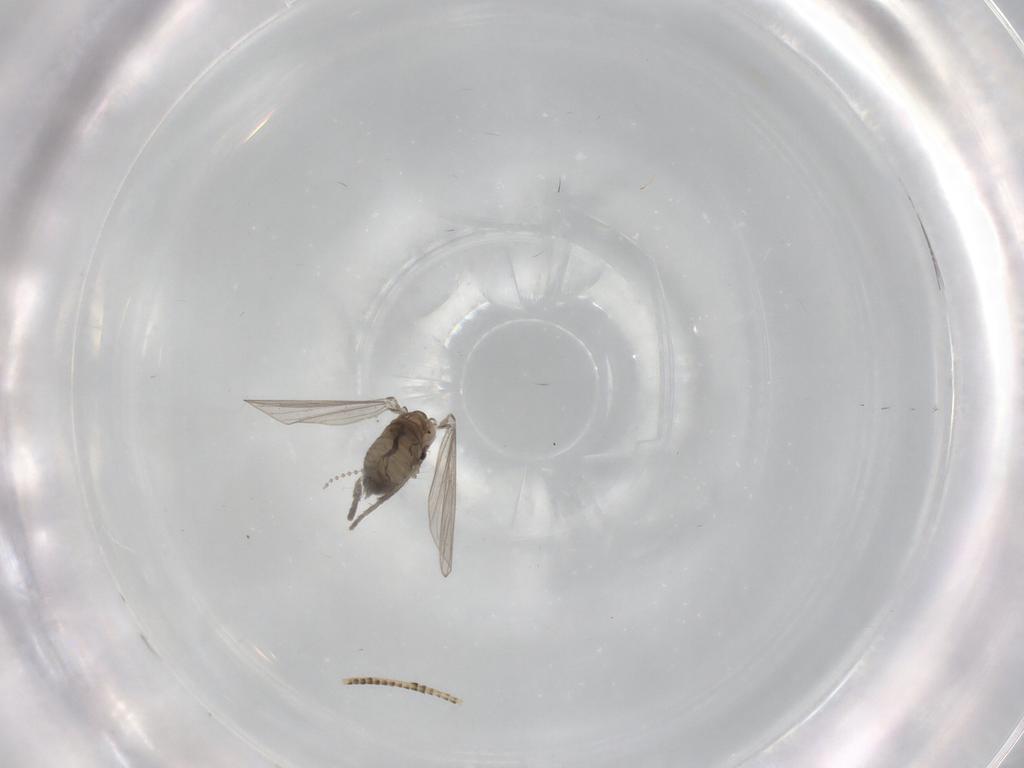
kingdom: Animalia
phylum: Arthropoda
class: Insecta
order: Diptera
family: Psychodidae
